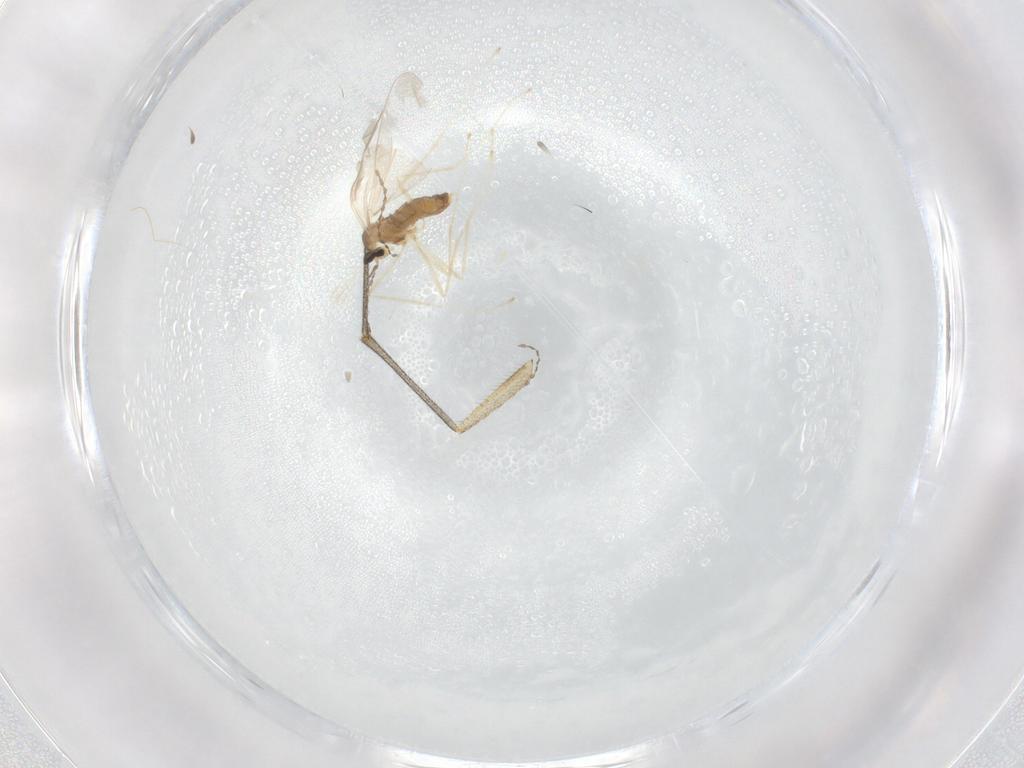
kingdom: Animalia
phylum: Arthropoda
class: Insecta
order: Diptera
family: Cecidomyiidae
